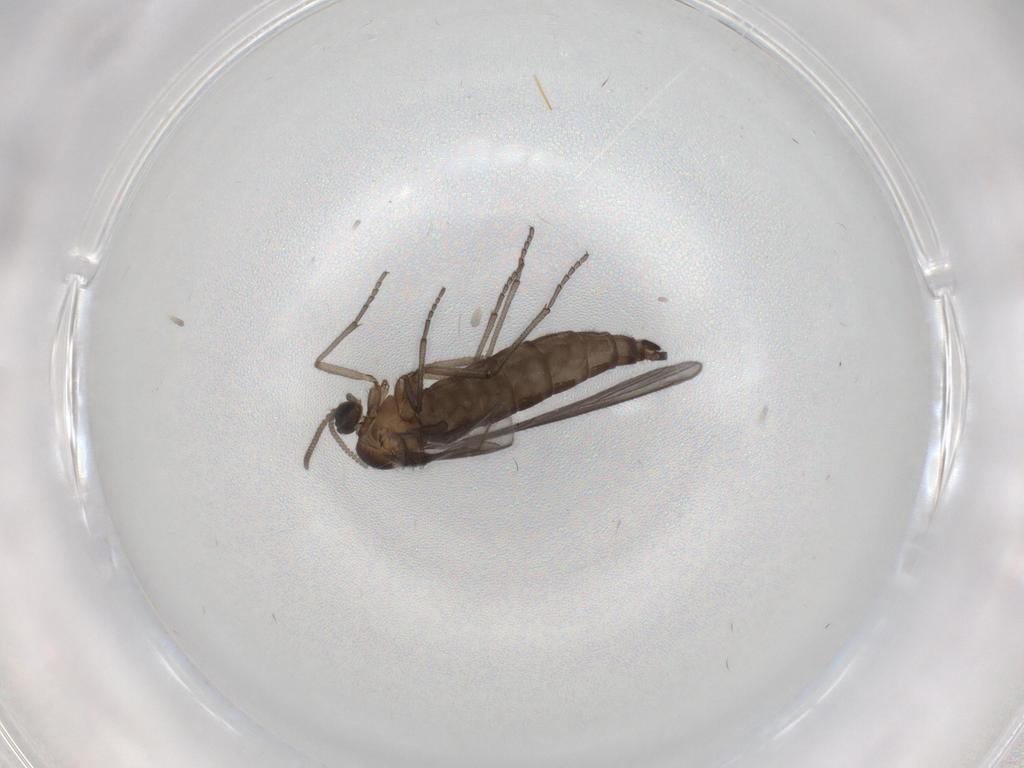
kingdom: Animalia
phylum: Arthropoda
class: Insecta
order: Diptera
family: Sciaridae
